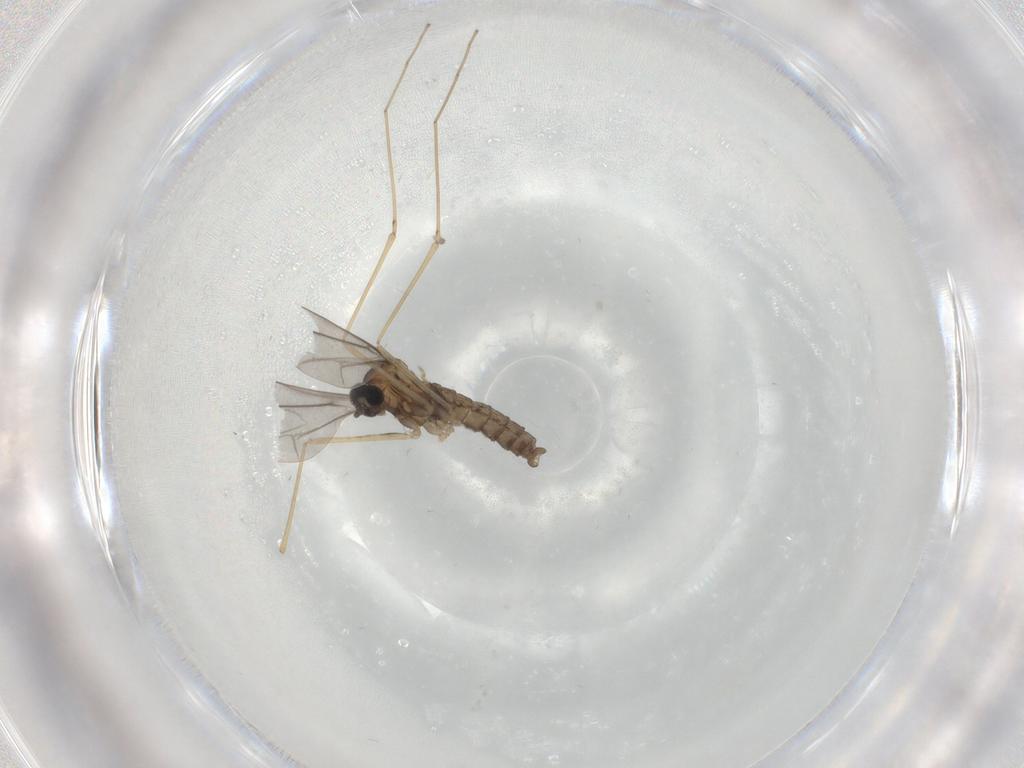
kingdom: Animalia
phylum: Arthropoda
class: Insecta
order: Diptera
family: Cecidomyiidae
